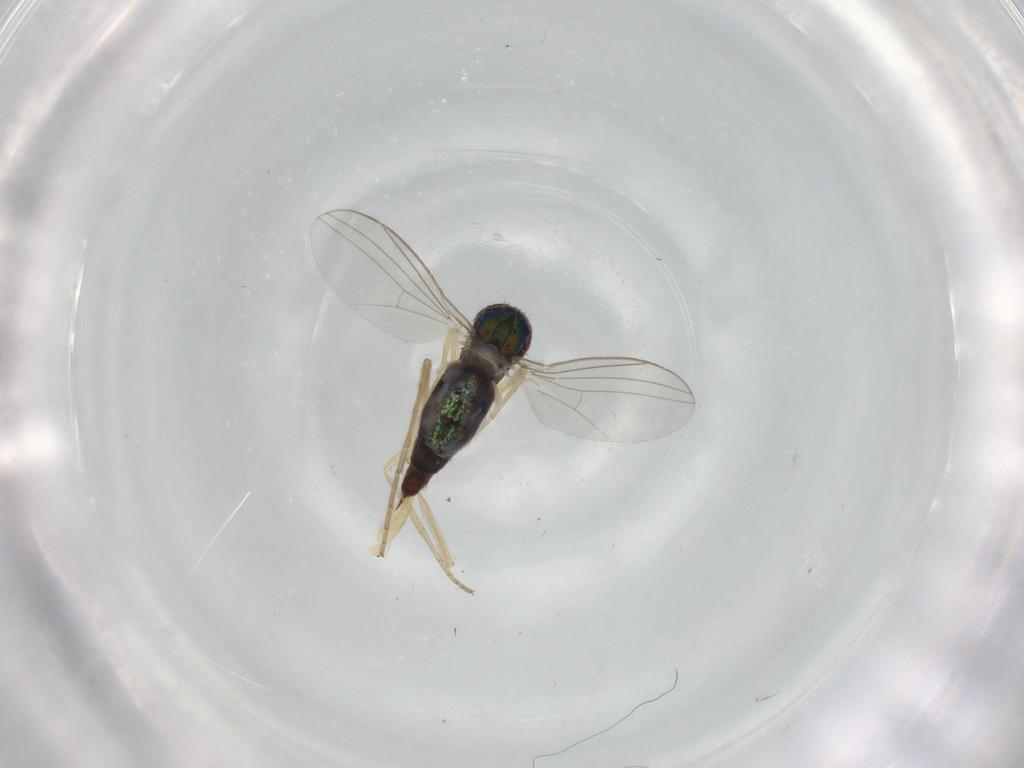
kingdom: Animalia
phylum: Arthropoda
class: Insecta
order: Diptera
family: Dolichopodidae
